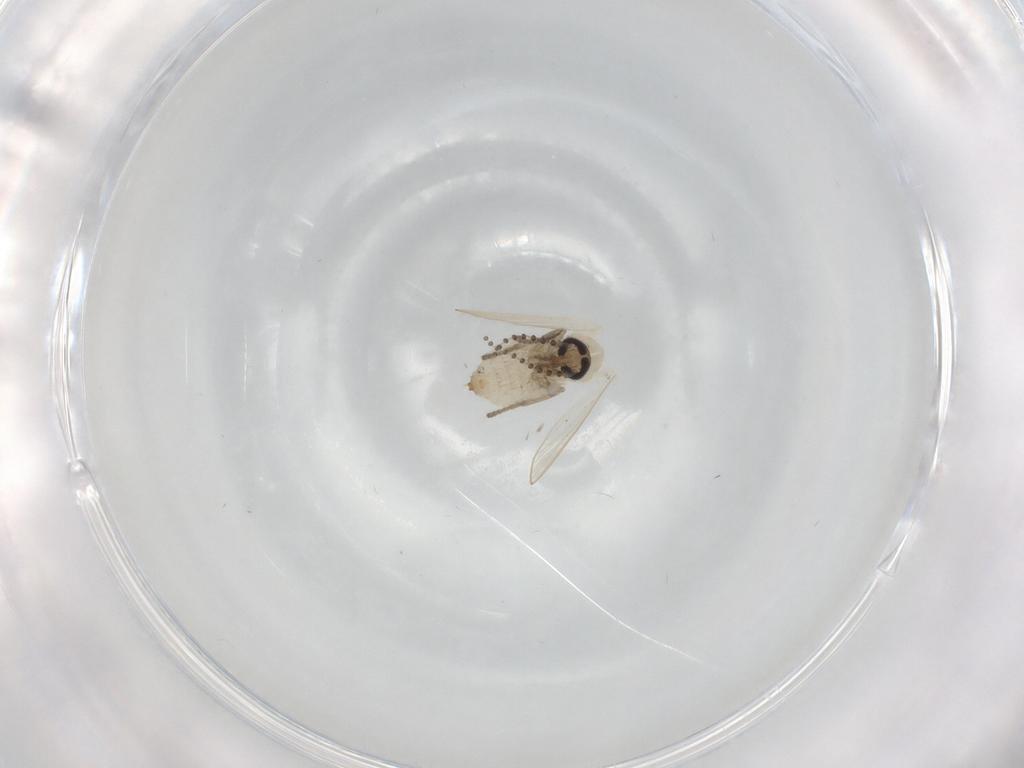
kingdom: Animalia
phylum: Arthropoda
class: Insecta
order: Diptera
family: Psychodidae
